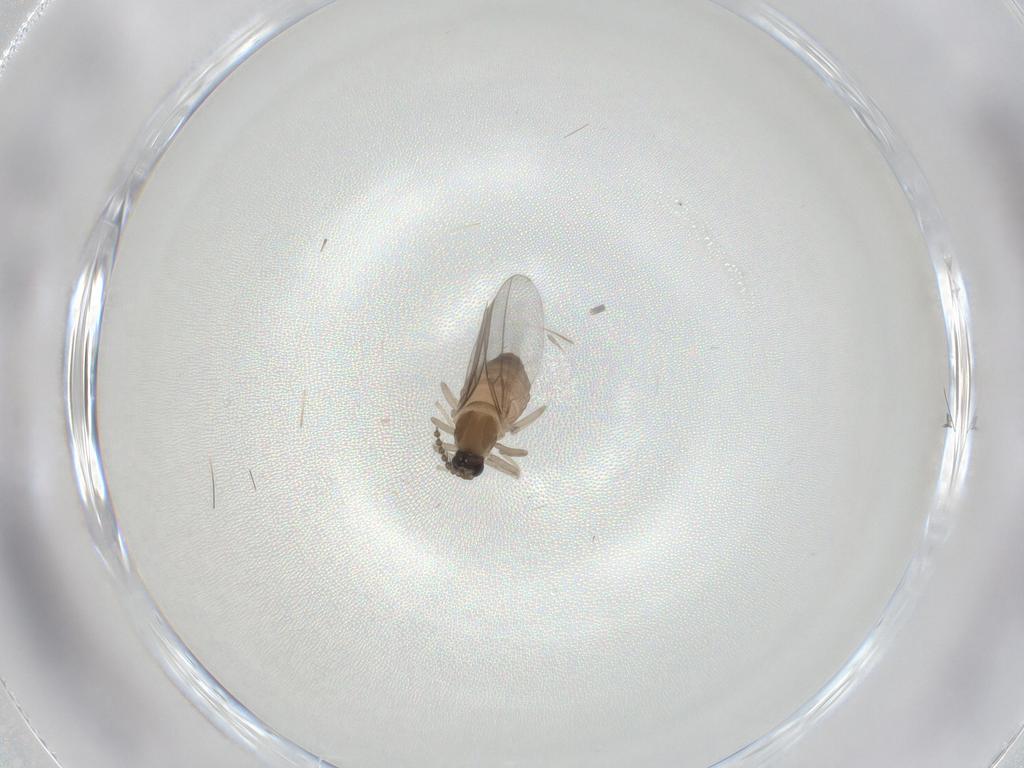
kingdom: Animalia
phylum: Arthropoda
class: Insecta
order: Diptera
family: Cecidomyiidae
